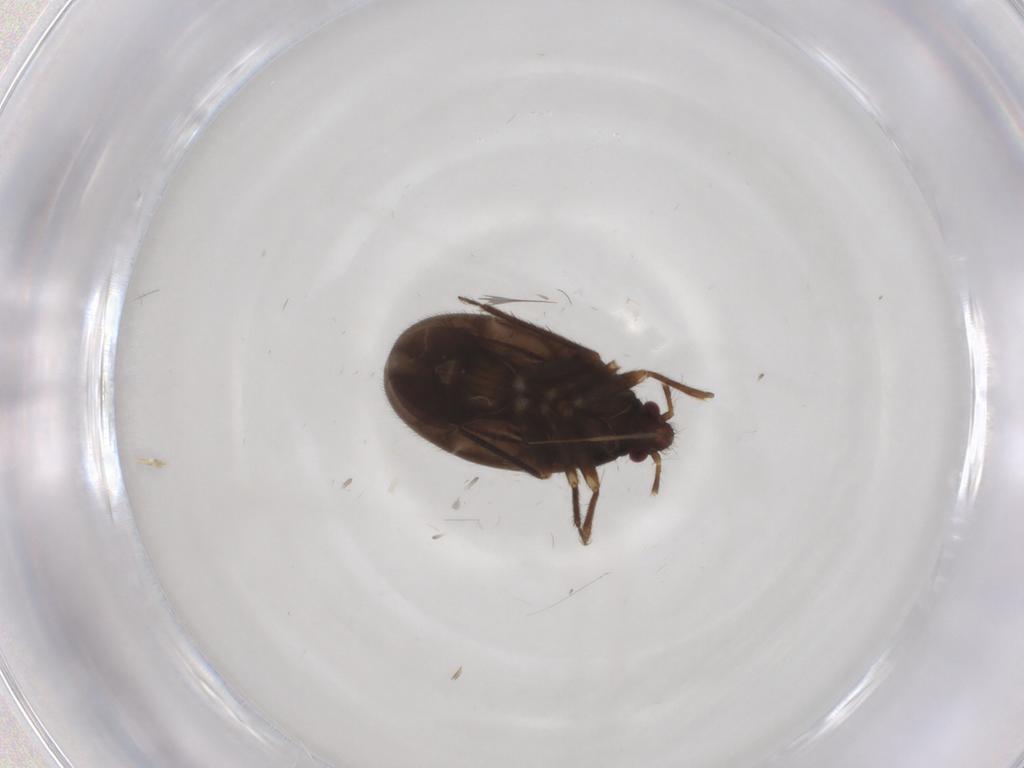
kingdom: Animalia
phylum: Arthropoda
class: Insecta
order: Hemiptera
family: Ceratocombidae
